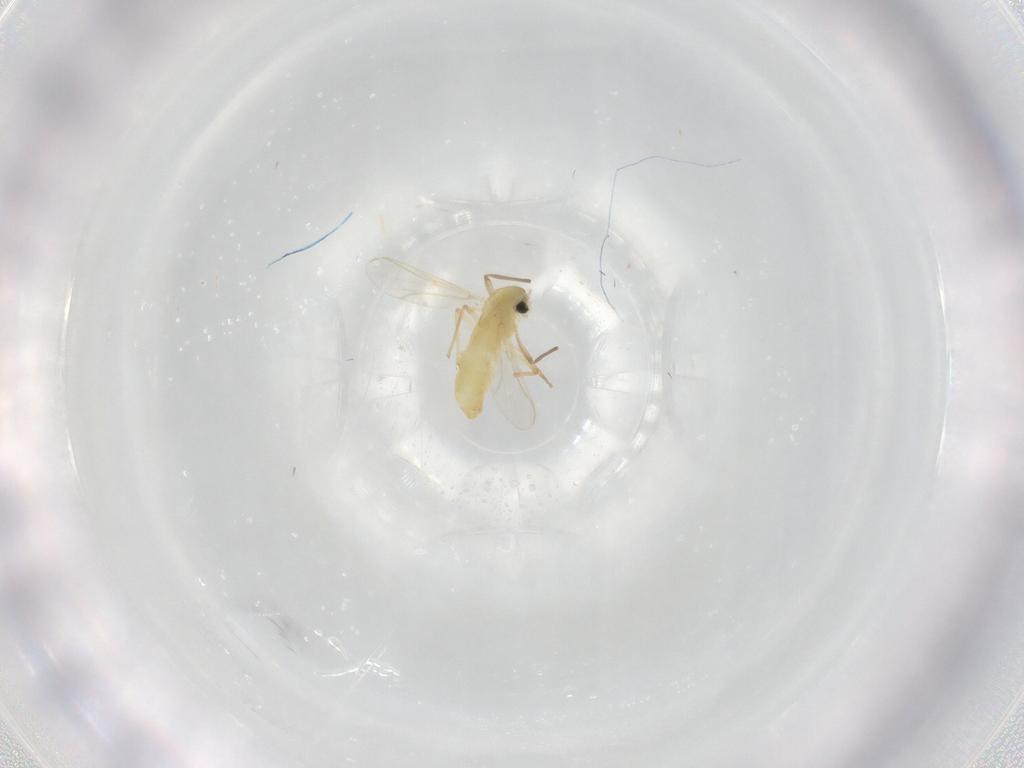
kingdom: Animalia
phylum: Arthropoda
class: Insecta
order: Diptera
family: Chironomidae
